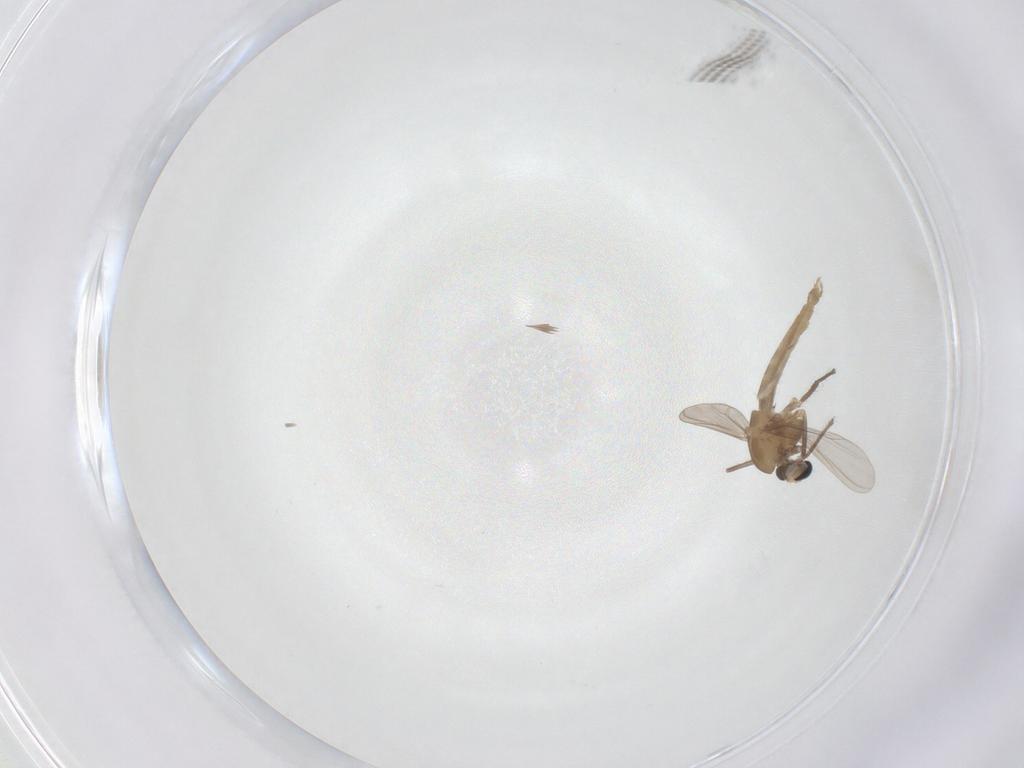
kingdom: Animalia
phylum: Arthropoda
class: Insecta
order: Diptera
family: Chironomidae
